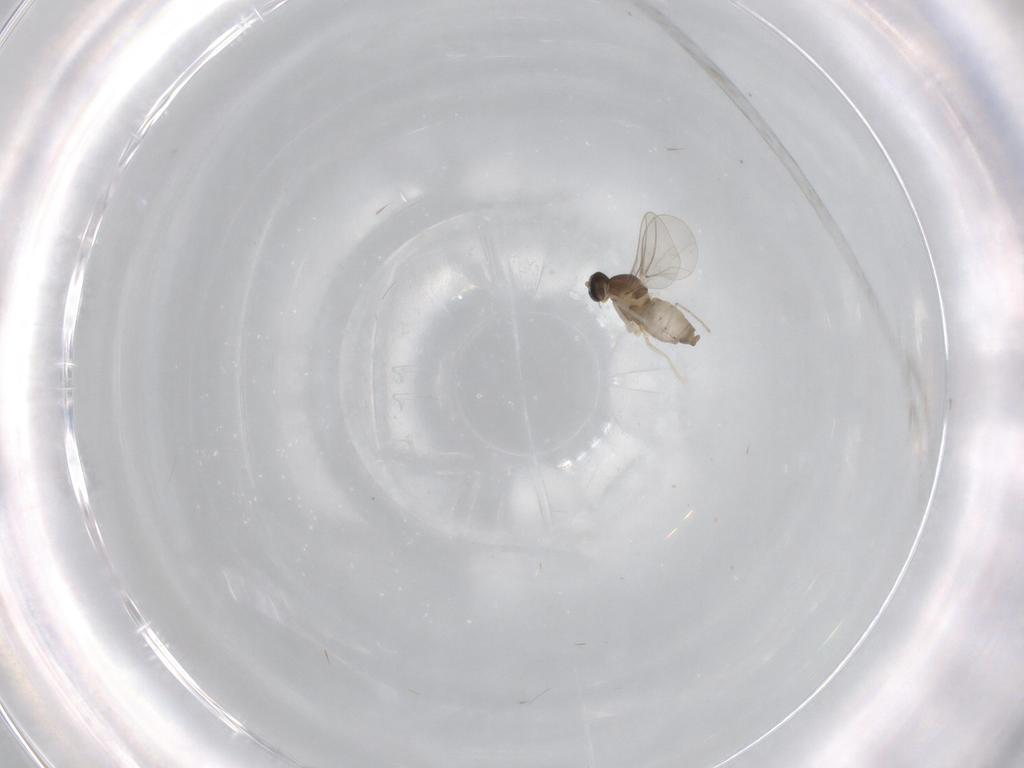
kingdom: Animalia
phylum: Arthropoda
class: Insecta
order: Diptera
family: Cecidomyiidae
